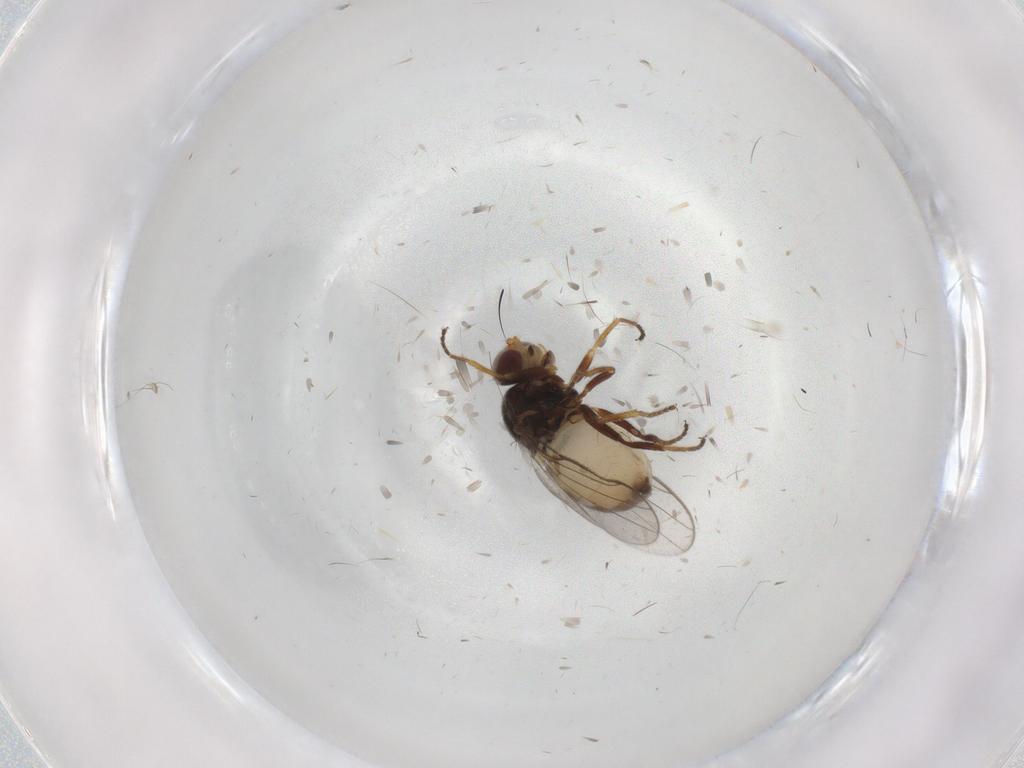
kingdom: Animalia
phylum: Arthropoda
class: Insecta
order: Diptera
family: Chloropidae
